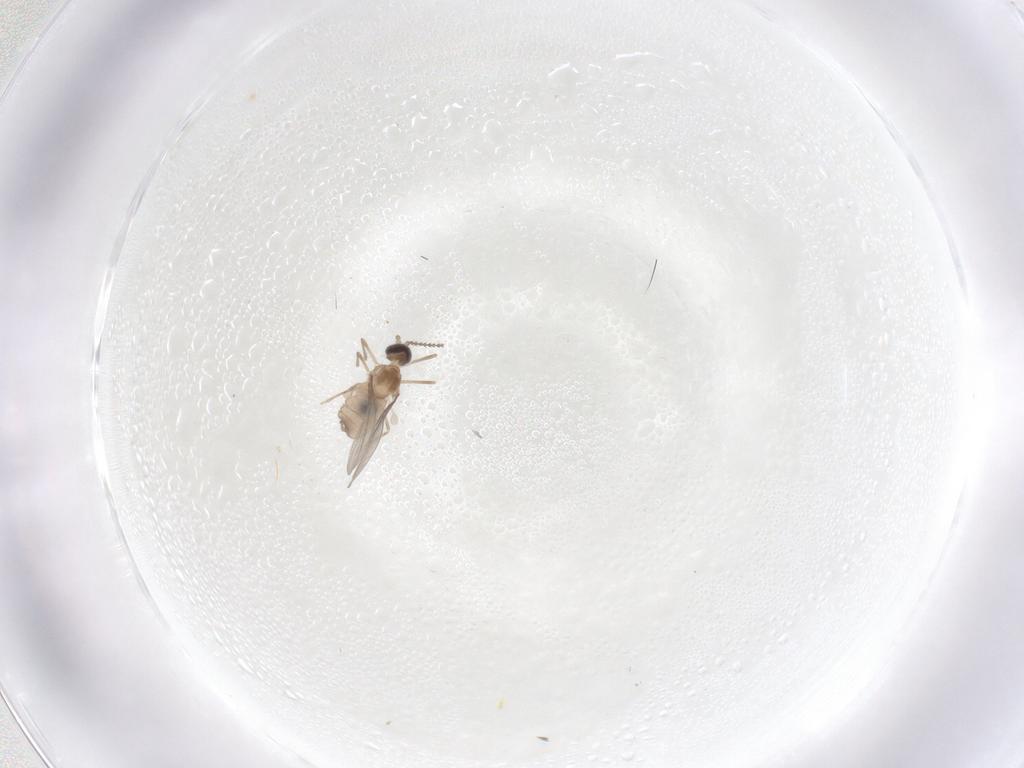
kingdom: Animalia
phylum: Arthropoda
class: Insecta
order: Diptera
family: Cecidomyiidae
